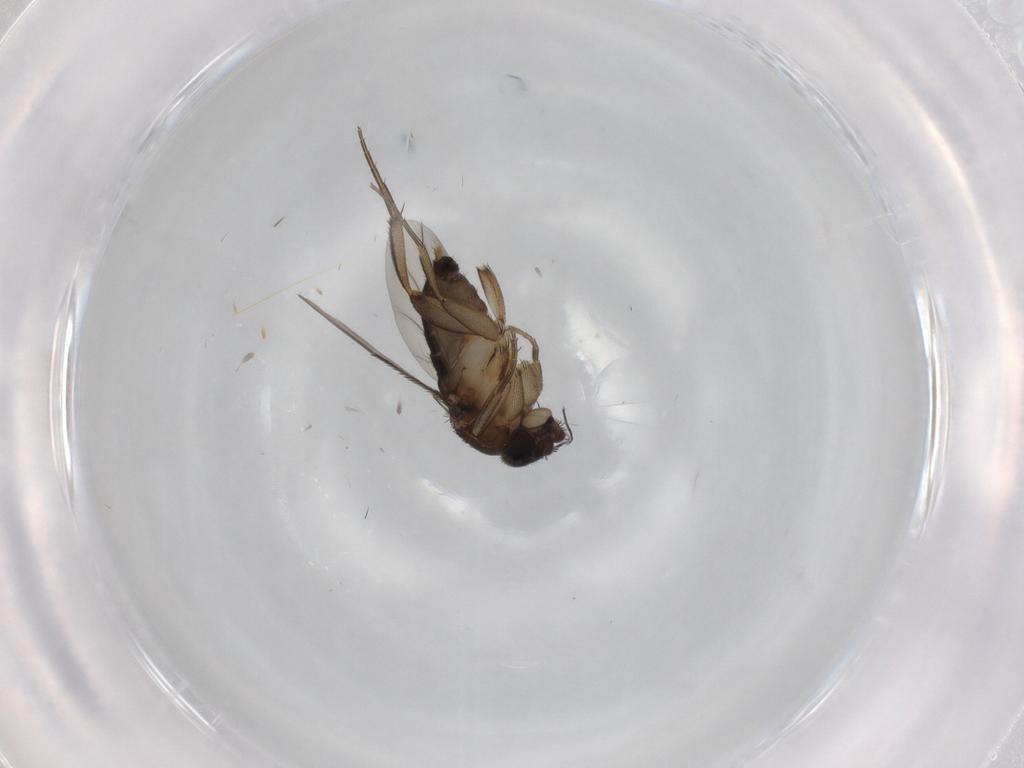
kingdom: Animalia
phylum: Arthropoda
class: Insecta
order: Diptera
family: Phoridae
